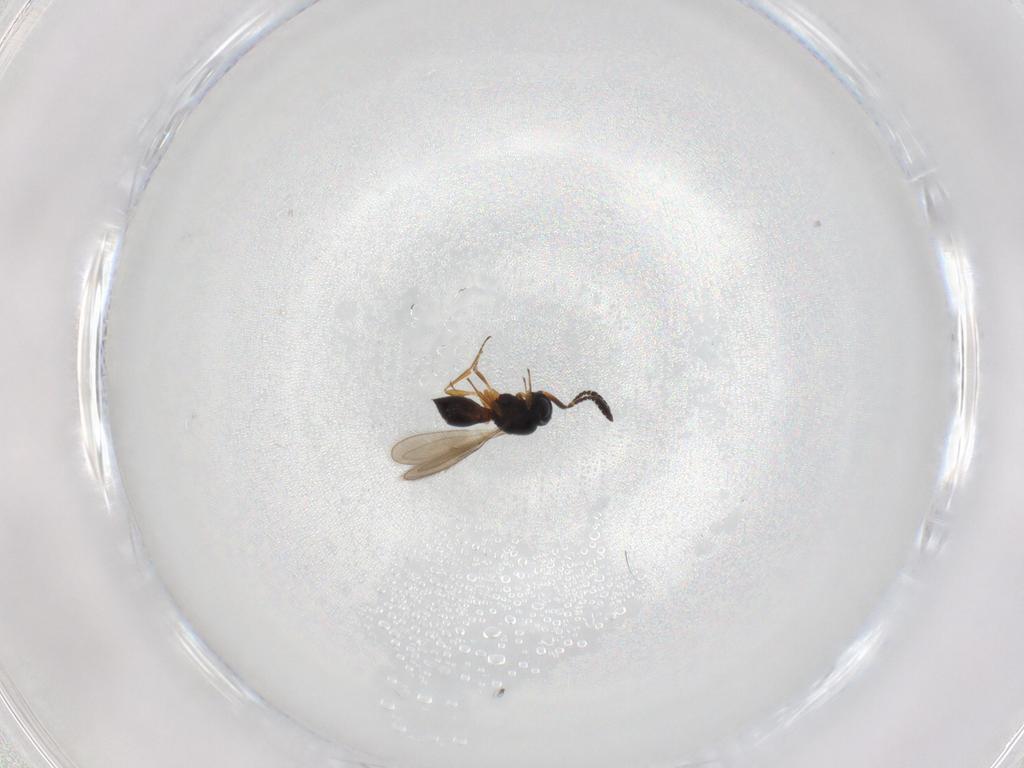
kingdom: Animalia
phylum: Arthropoda
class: Insecta
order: Hymenoptera
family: Scelionidae
